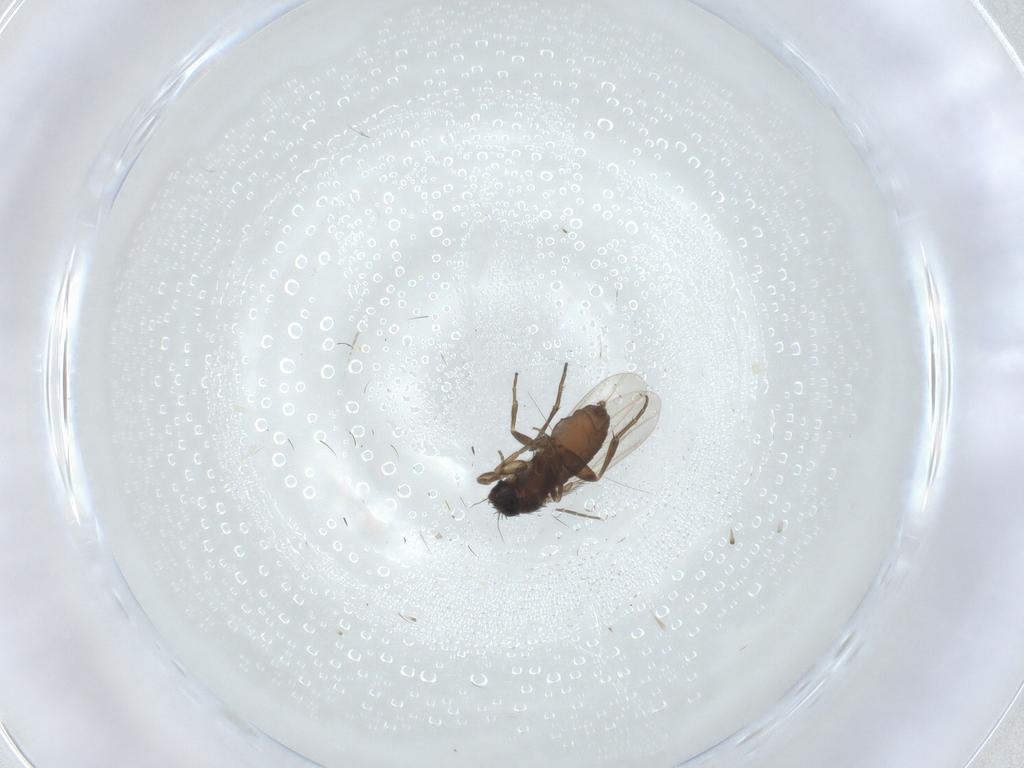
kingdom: Animalia
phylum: Arthropoda
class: Insecta
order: Diptera
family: Phoridae
